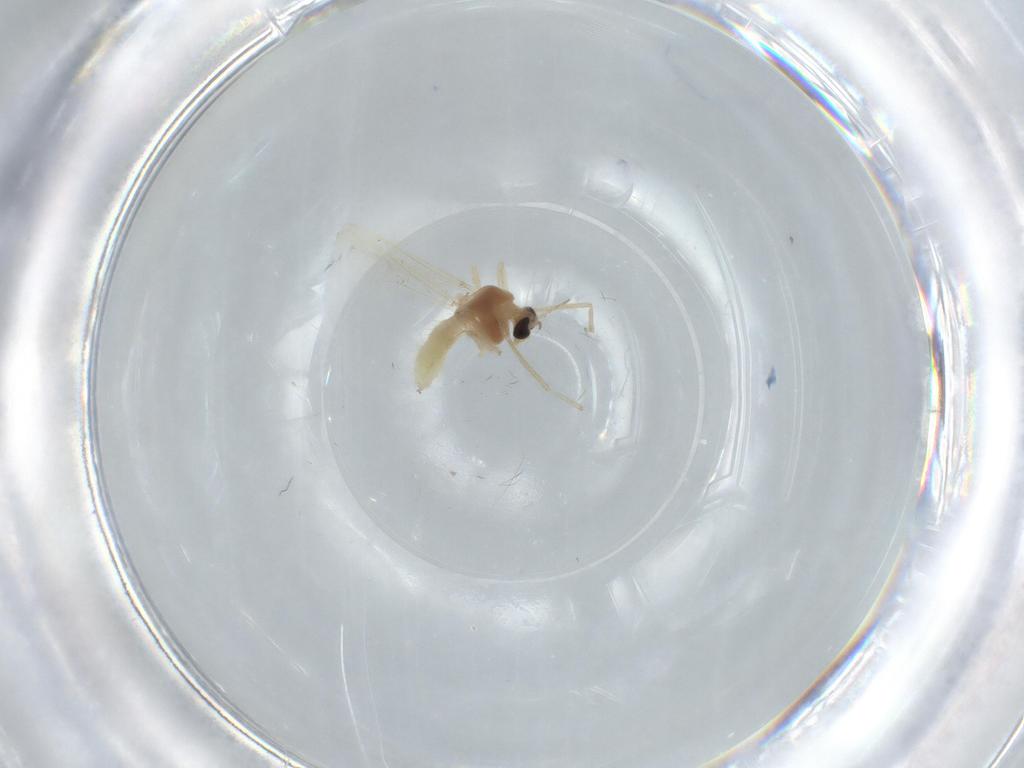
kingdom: Animalia
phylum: Arthropoda
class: Insecta
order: Diptera
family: Chironomidae
